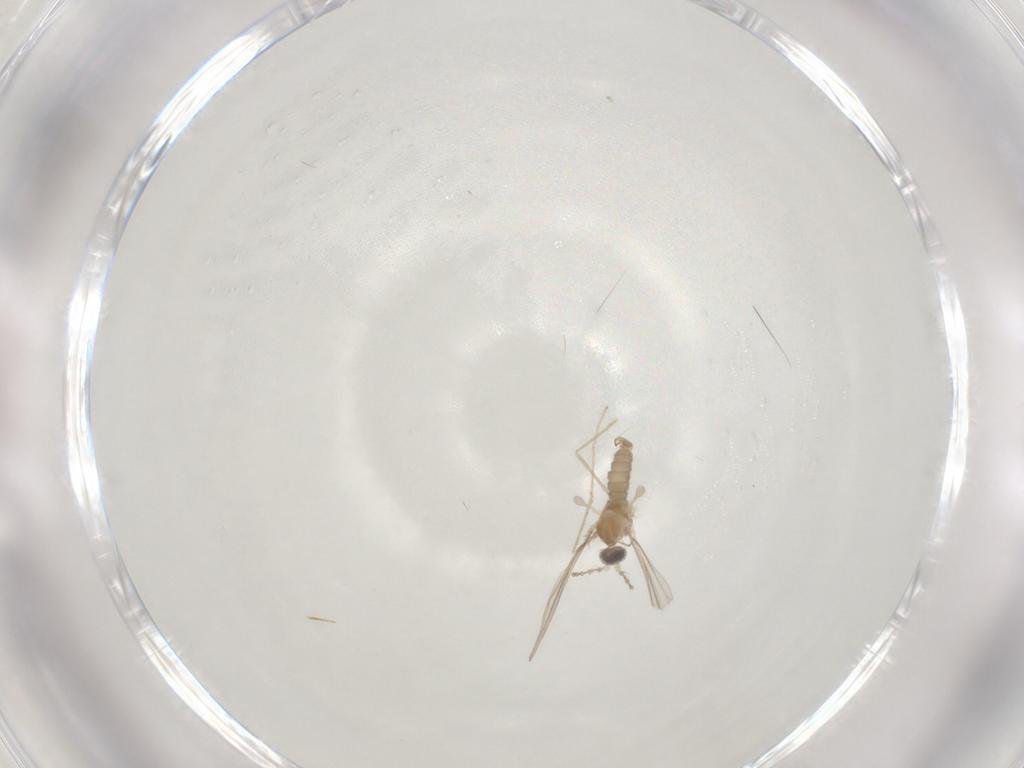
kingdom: Animalia
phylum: Arthropoda
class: Insecta
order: Diptera
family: Cecidomyiidae
